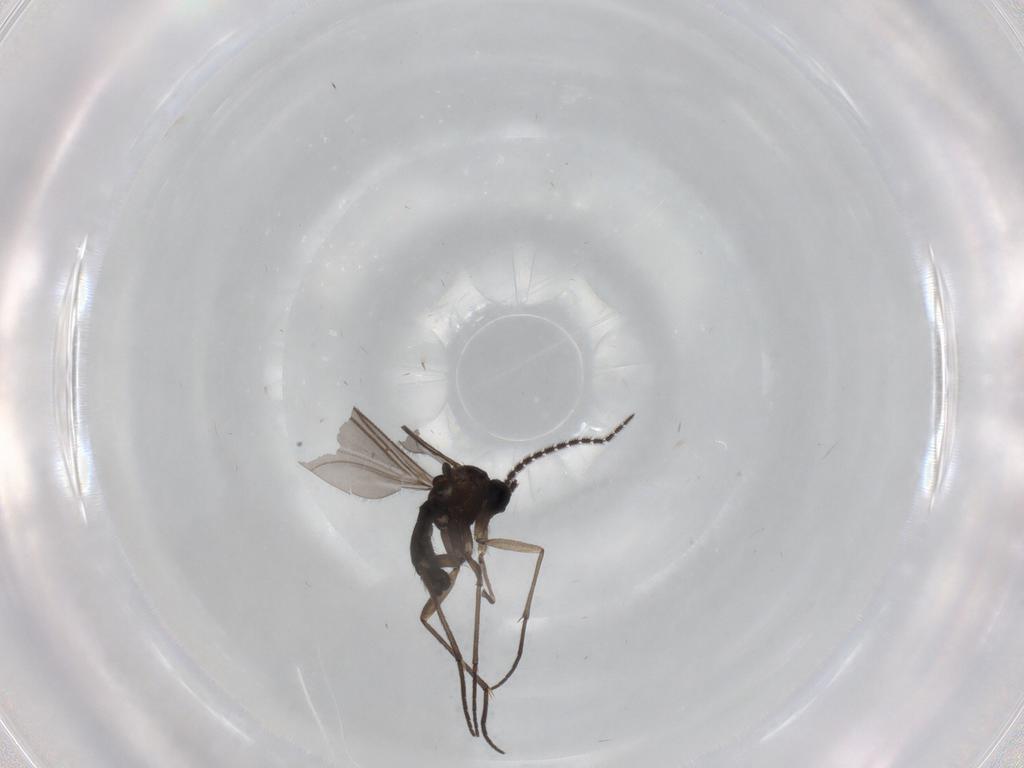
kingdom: Animalia
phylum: Arthropoda
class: Insecta
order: Diptera
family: Sciaridae
